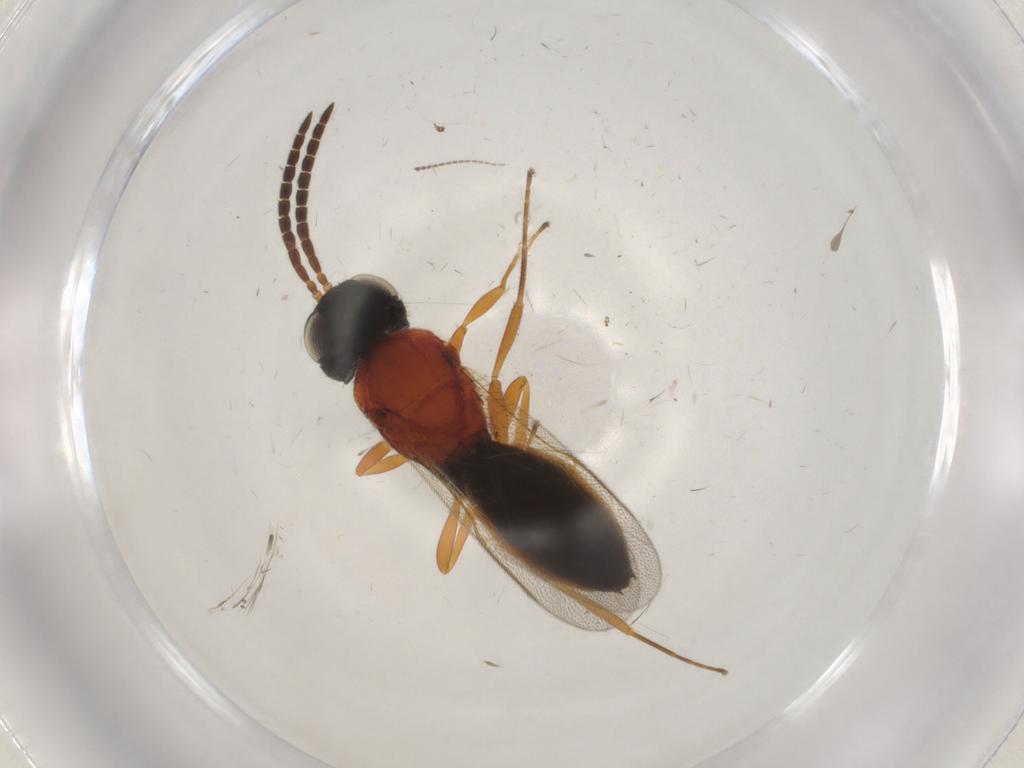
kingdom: Animalia
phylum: Arthropoda
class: Insecta
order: Hymenoptera
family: Scelionidae
